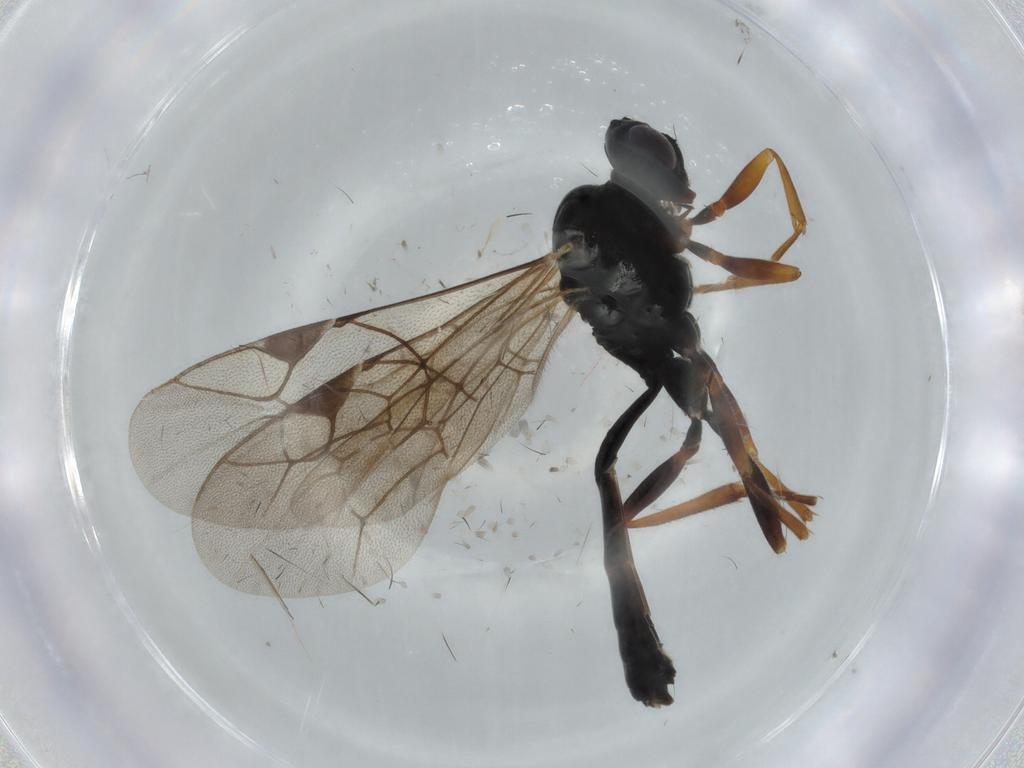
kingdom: Animalia
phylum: Arthropoda
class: Insecta
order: Hymenoptera
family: Ichneumonidae
